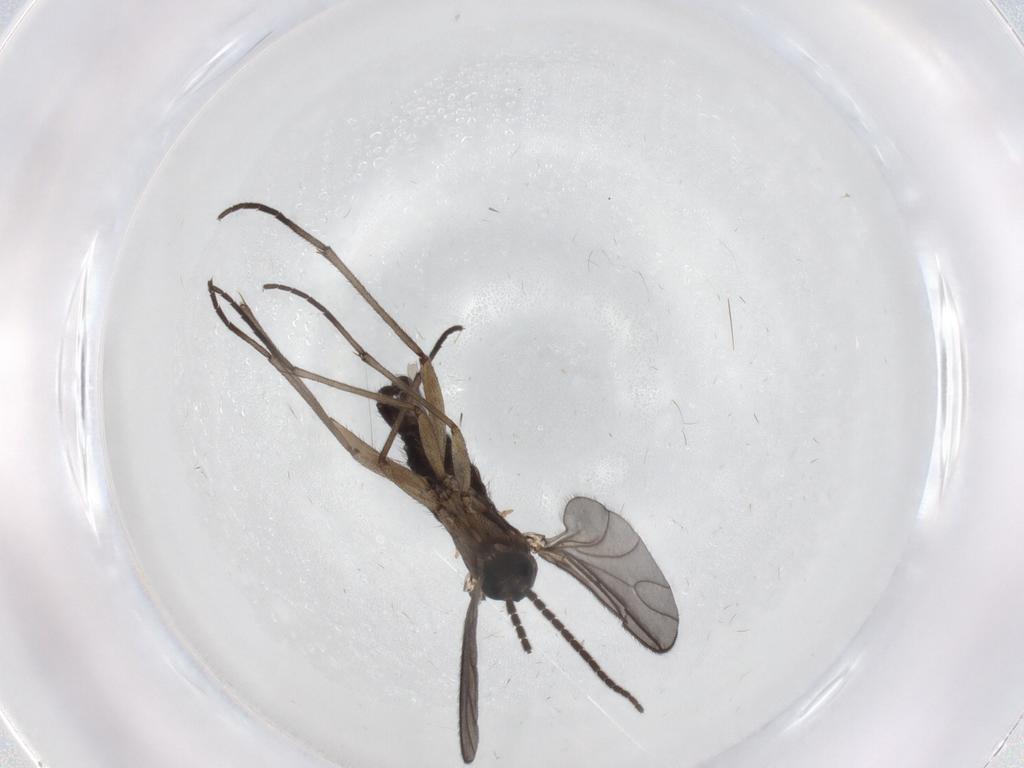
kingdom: Animalia
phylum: Arthropoda
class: Insecta
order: Diptera
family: Sciaridae
